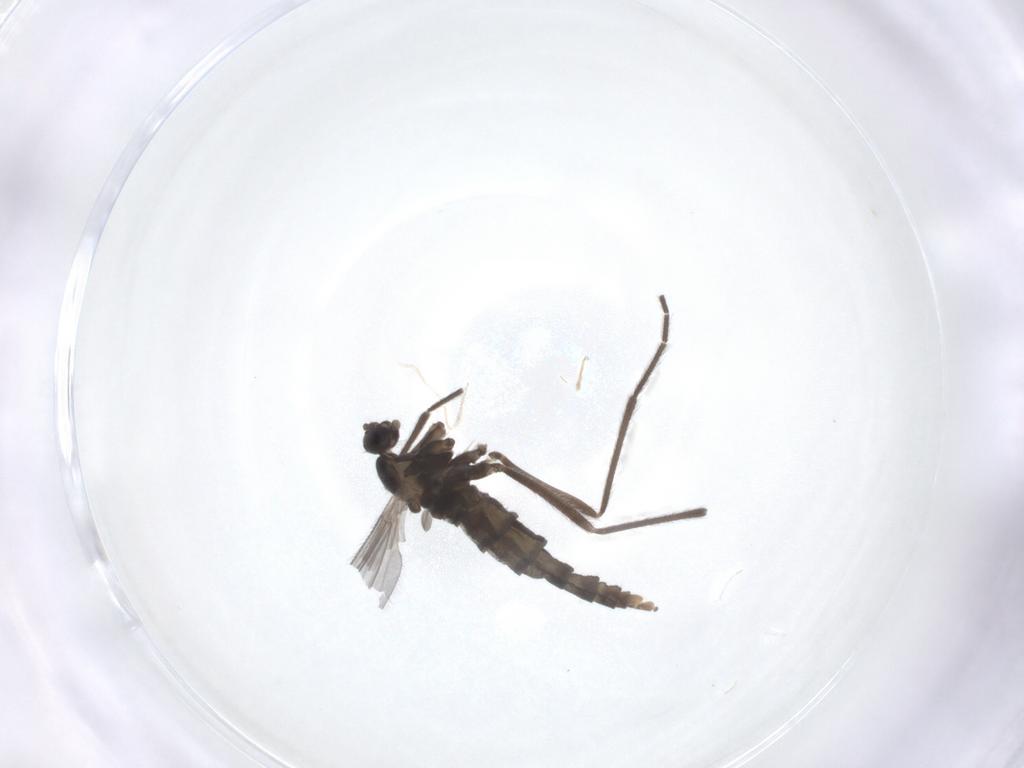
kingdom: Animalia
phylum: Arthropoda
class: Insecta
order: Diptera
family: Cecidomyiidae
